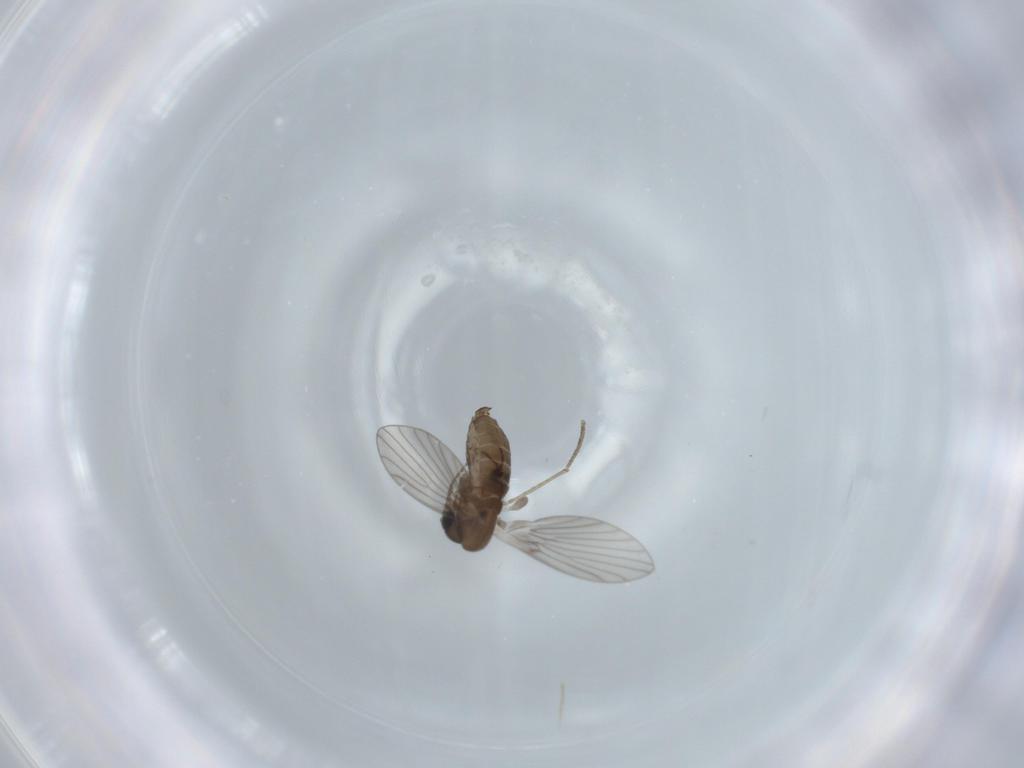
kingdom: Animalia
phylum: Arthropoda
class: Insecta
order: Diptera
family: Psychodidae
